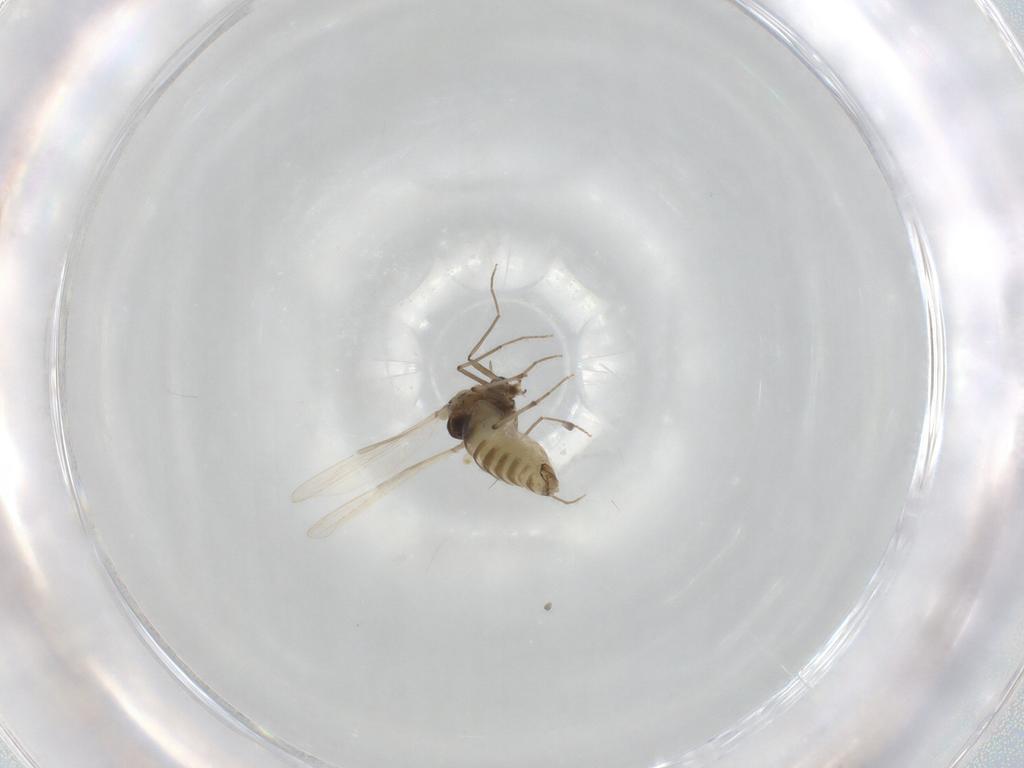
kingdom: Animalia
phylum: Arthropoda
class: Insecta
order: Diptera
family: Chironomidae
